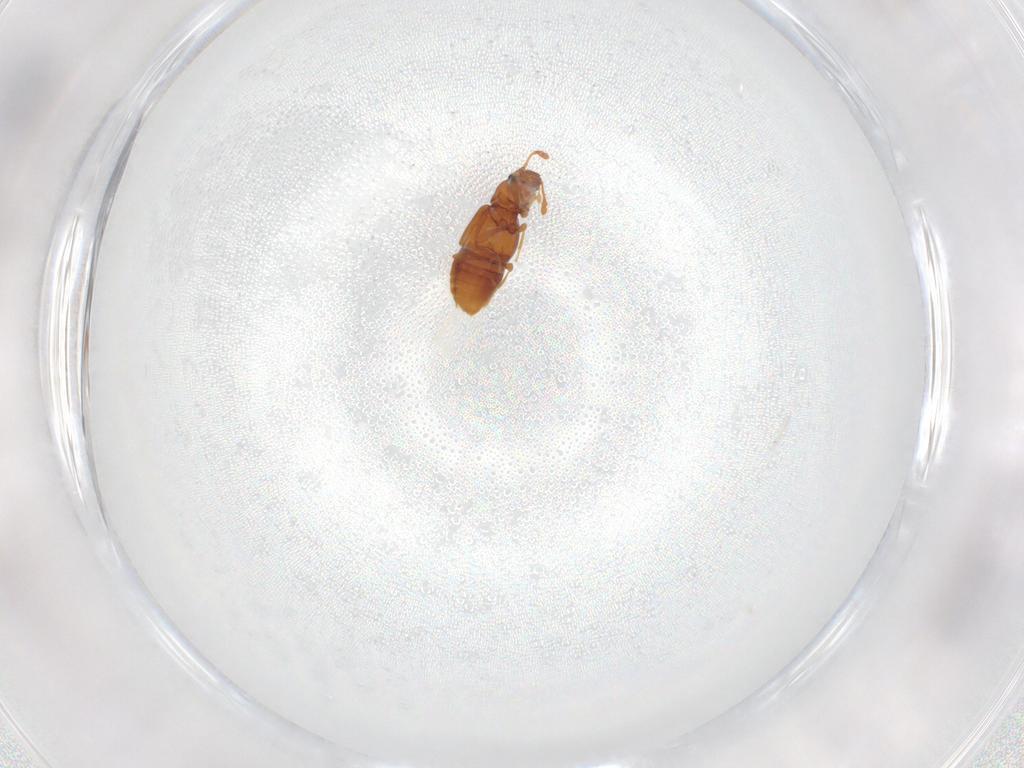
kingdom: Animalia
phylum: Arthropoda
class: Insecta
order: Coleoptera
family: Staphylinidae
